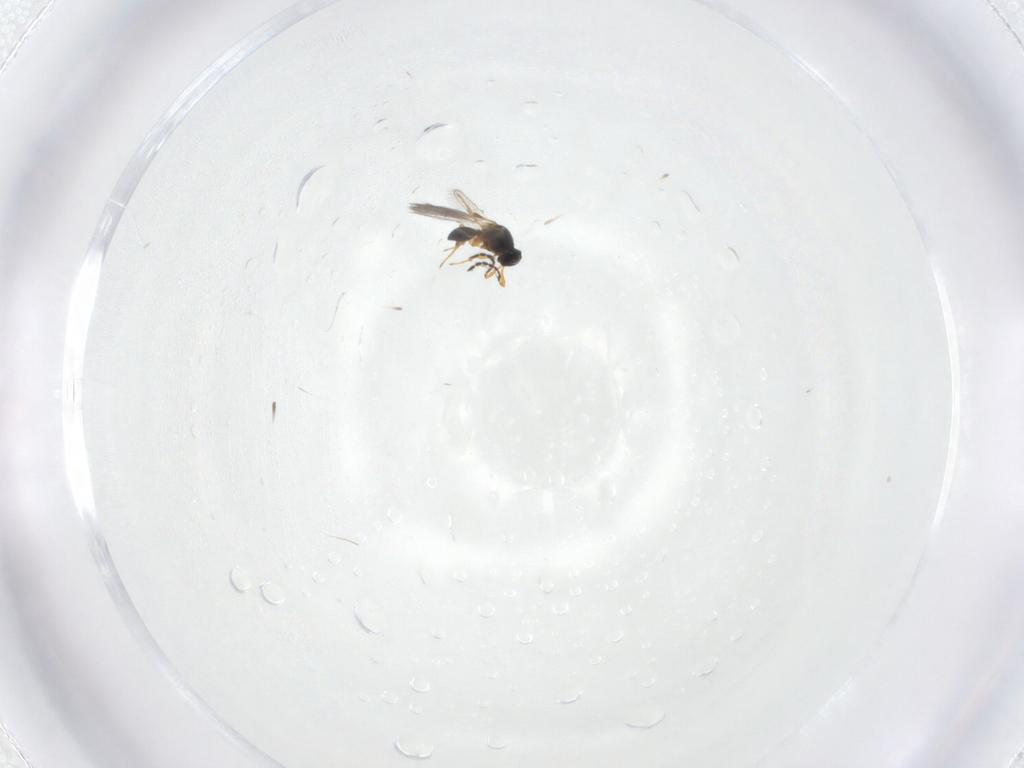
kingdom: Animalia
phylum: Arthropoda
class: Insecta
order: Hymenoptera
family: Platygastridae
